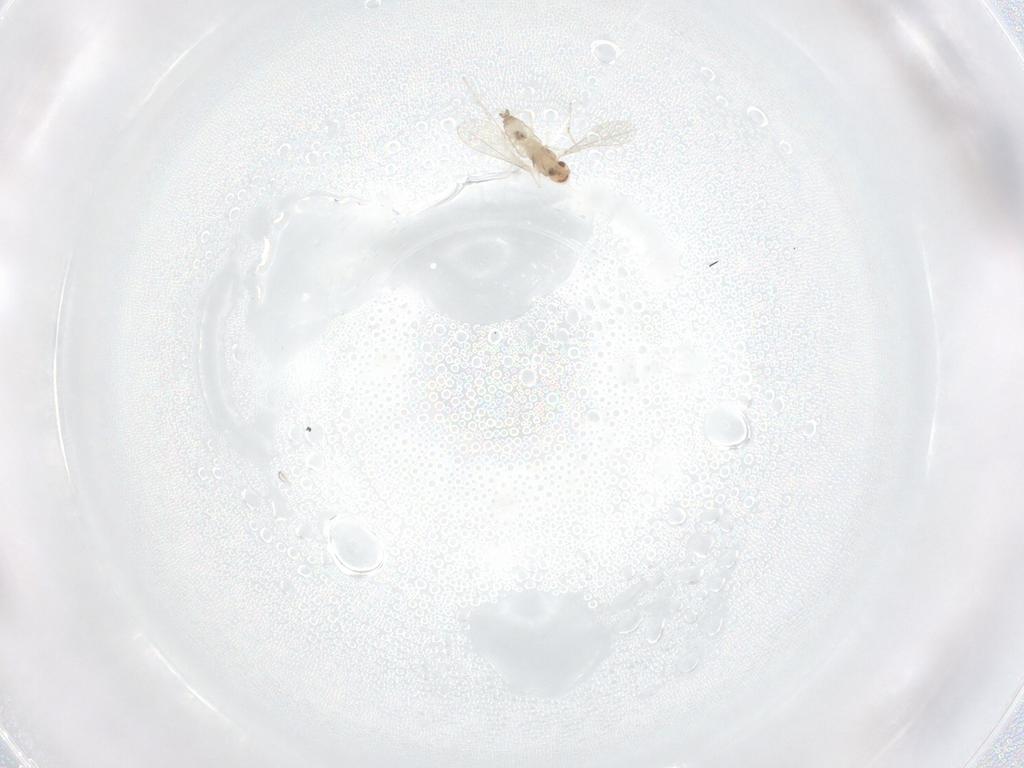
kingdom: Animalia
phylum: Arthropoda
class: Insecta
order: Diptera
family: Cecidomyiidae
